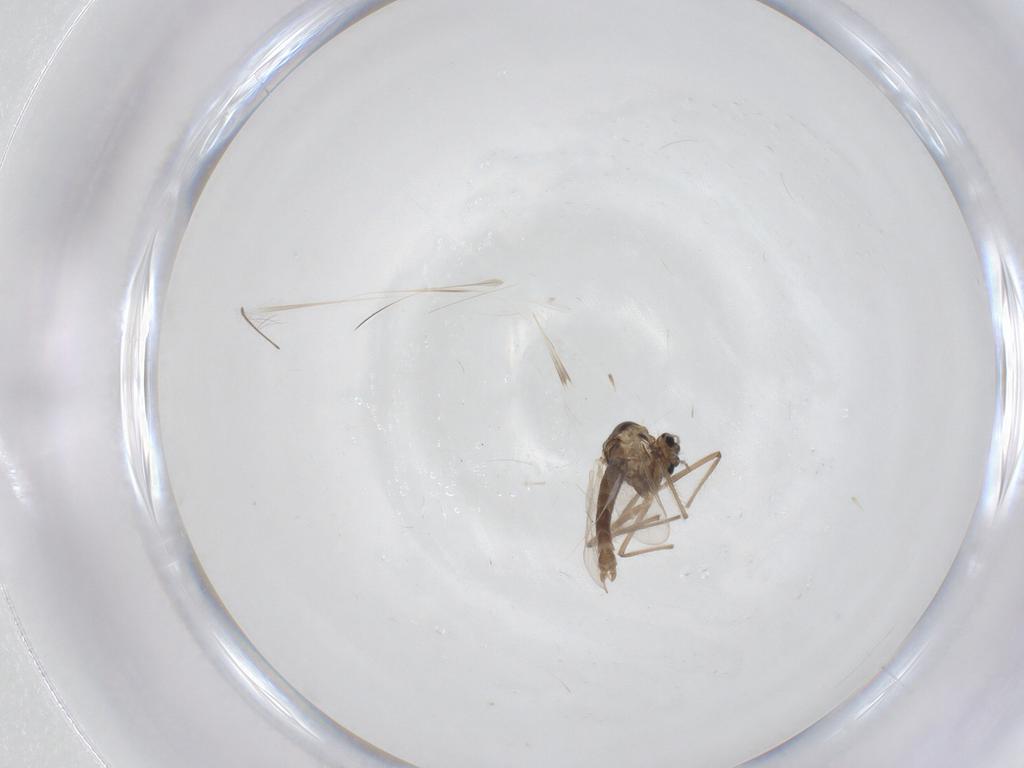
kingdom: Animalia
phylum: Arthropoda
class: Insecta
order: Diptera
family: Chironomidae
